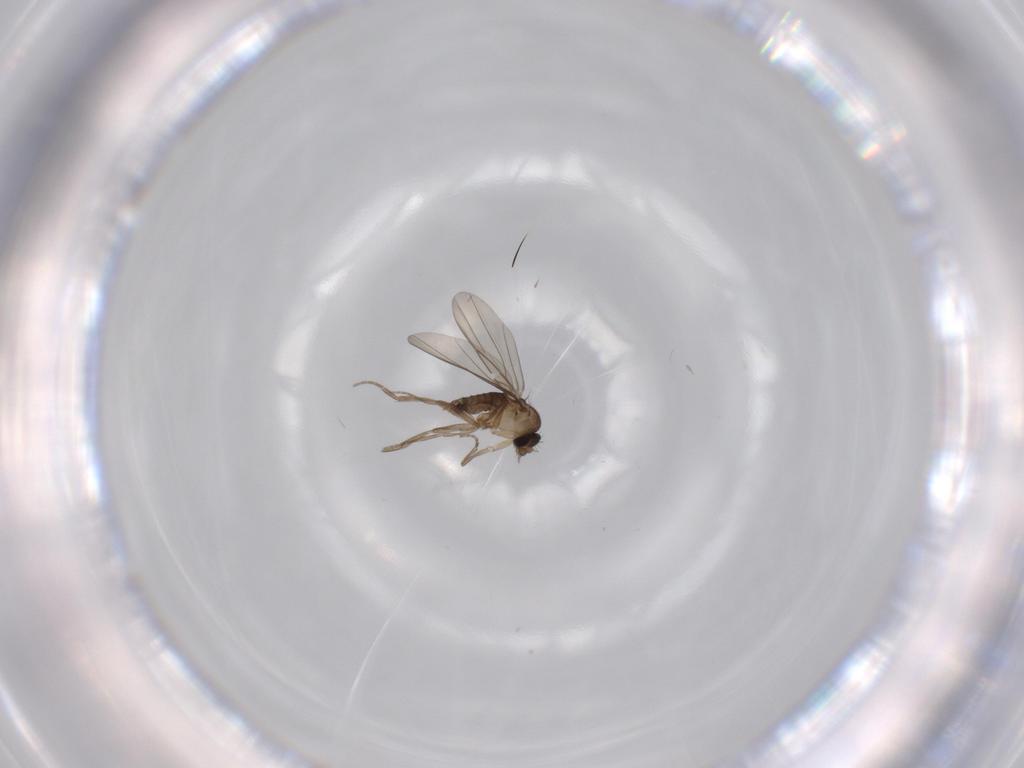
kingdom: Animalia
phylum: Arthropoda
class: Insecta
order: Diptera
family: Phoridae
